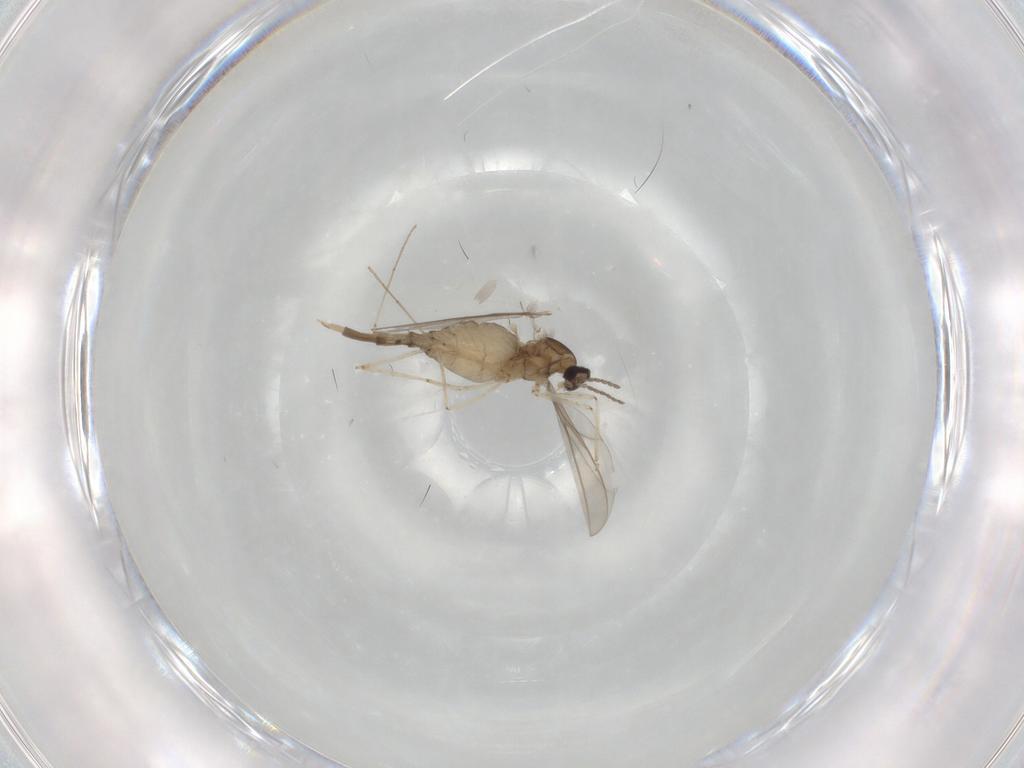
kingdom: Animalia
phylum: Arthropoda
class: Insecta
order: Diptera
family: Cecidomyiidae
